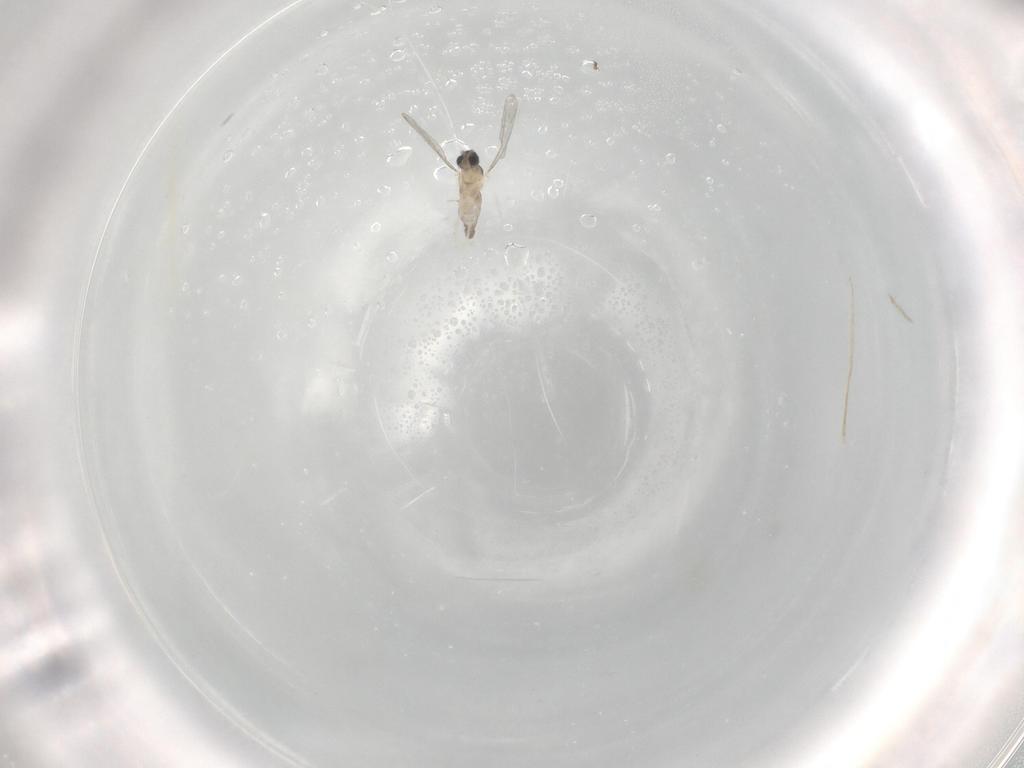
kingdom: Animalia
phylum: Arthropoda
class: Insecta
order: Diptera
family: Cecidomyiidae
